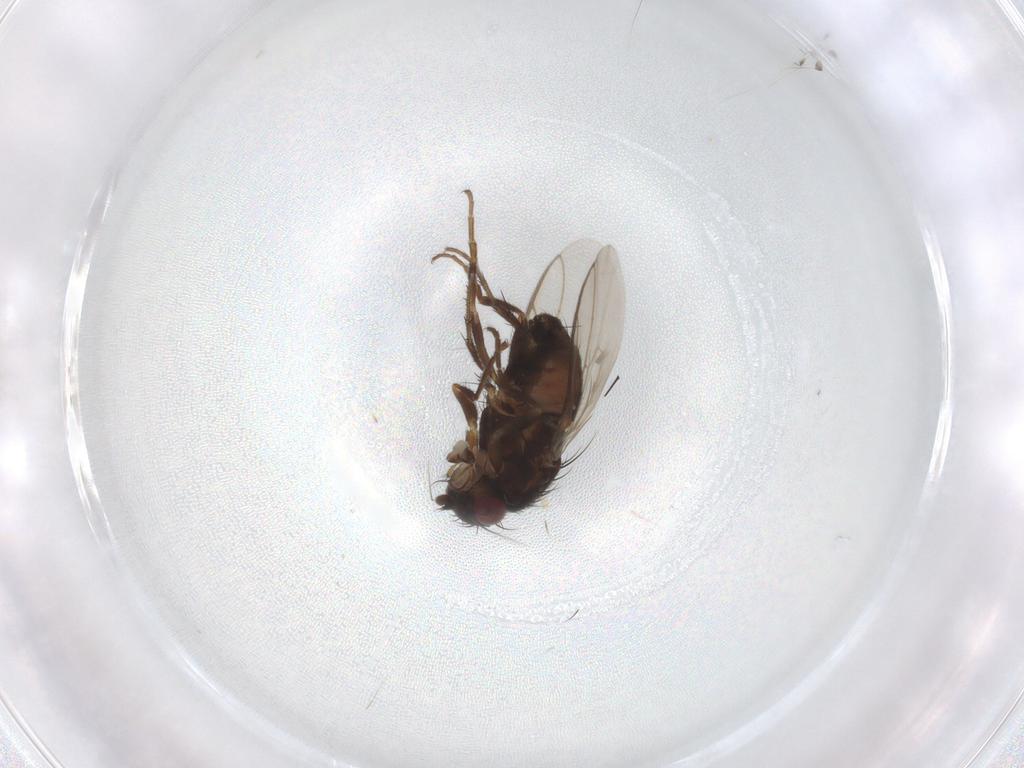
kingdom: Animalia
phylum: Arthropoda
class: Insecta
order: Diptera
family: Sphaeroceridae
